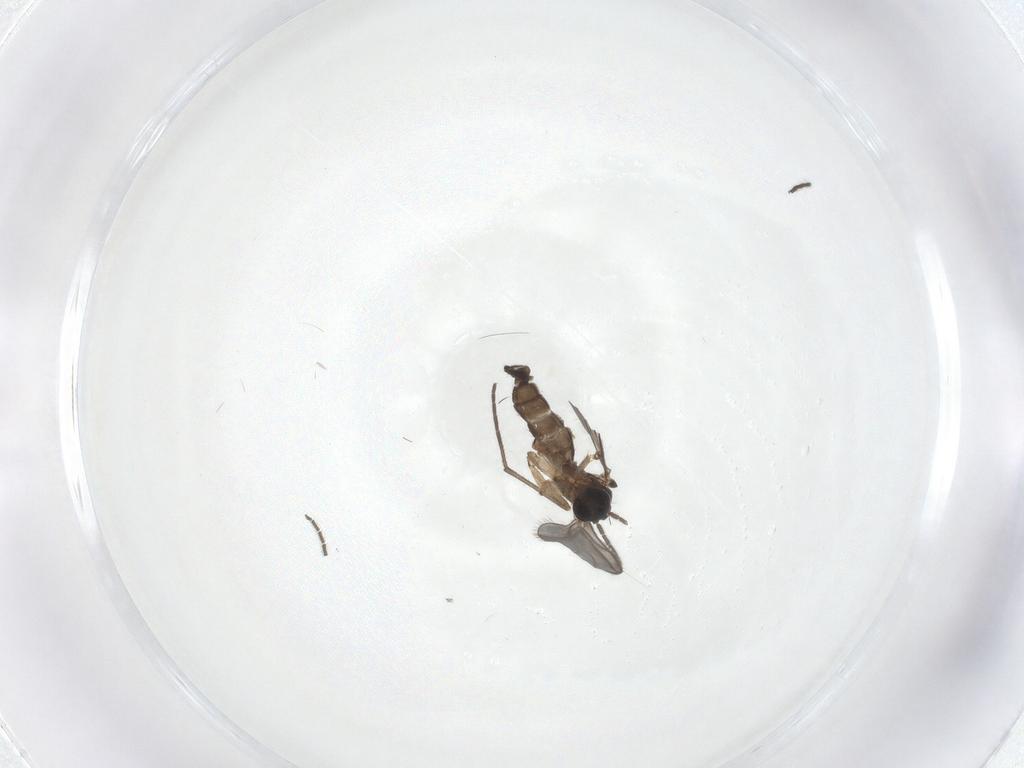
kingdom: Animalia
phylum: Arthropoda
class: Insecta
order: Diptera
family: Sciaridae
